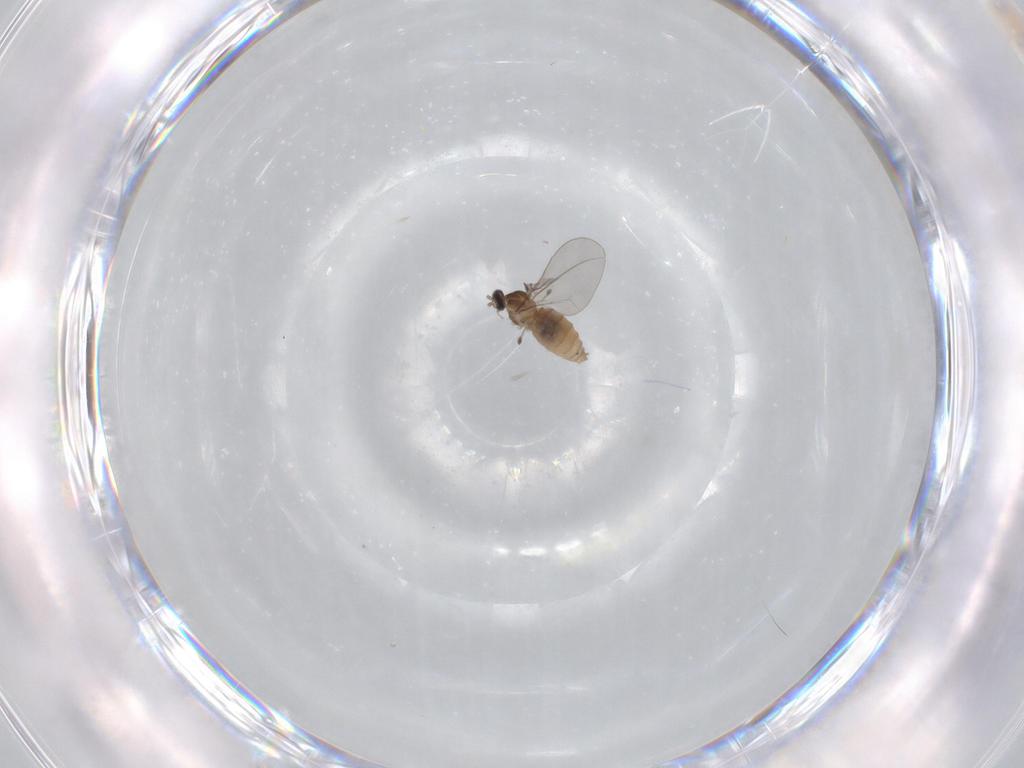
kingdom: Animalia
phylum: Arthropoda
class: Insecta
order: Diptera
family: Cecidomyiidae
